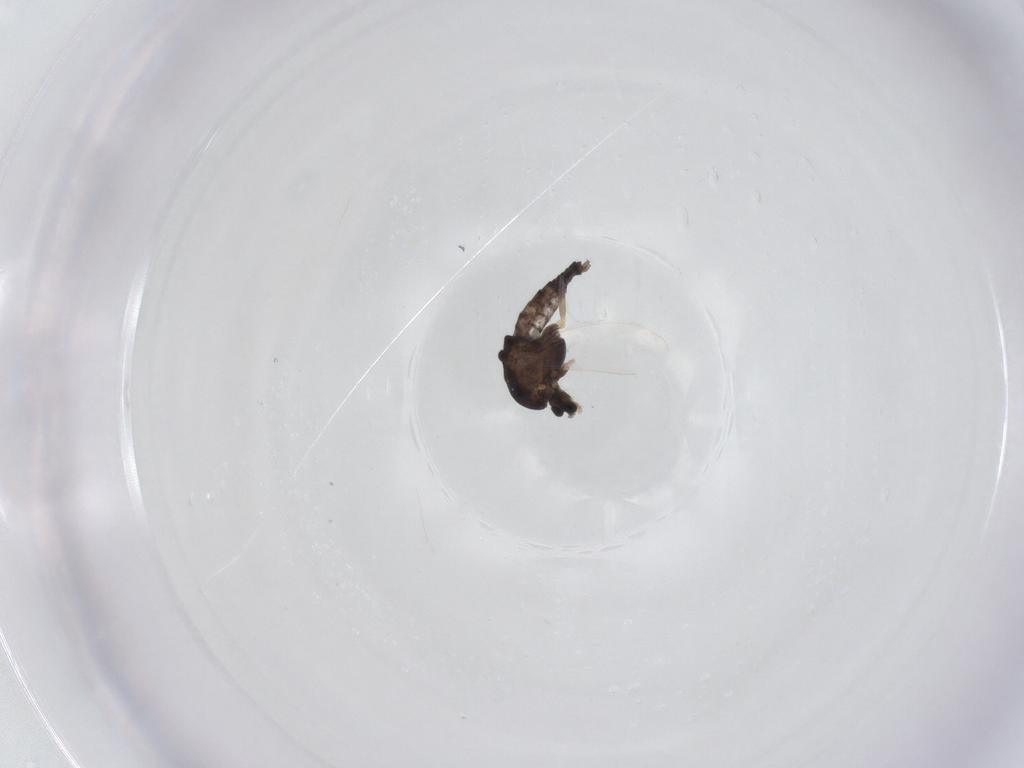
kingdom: Animalia
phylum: Arthropoda
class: Insecta
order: Diptera
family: Chironomidae
